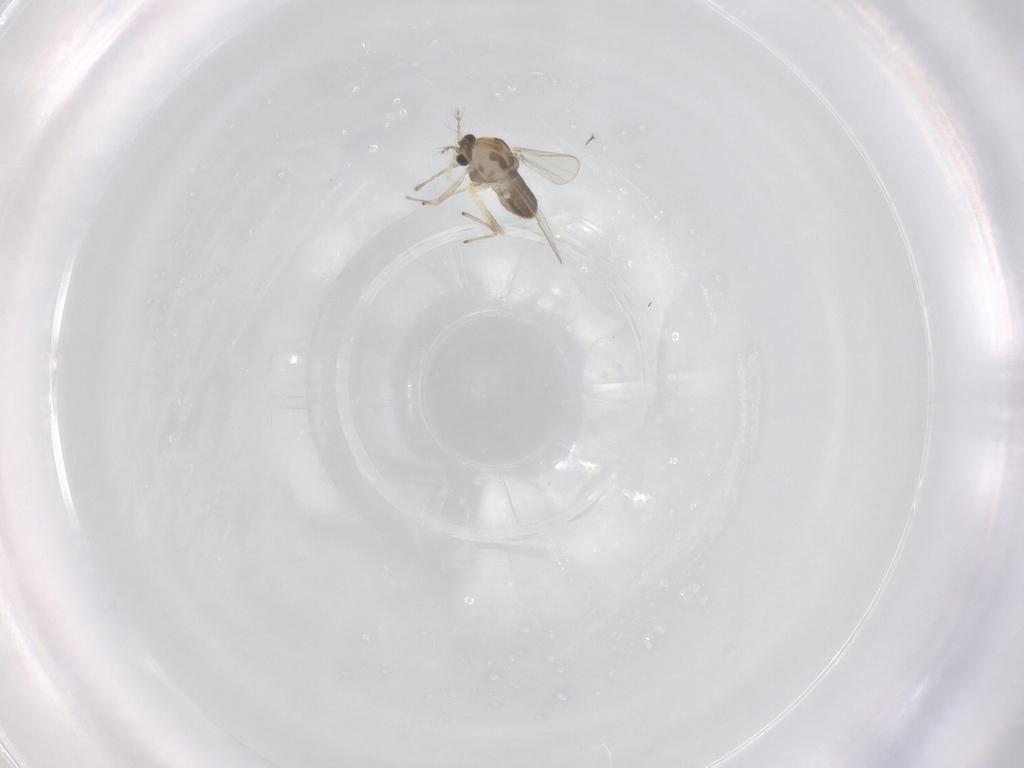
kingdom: Animalia
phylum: Arthropoda
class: Insecta
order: Diptera
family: Chironomidae
